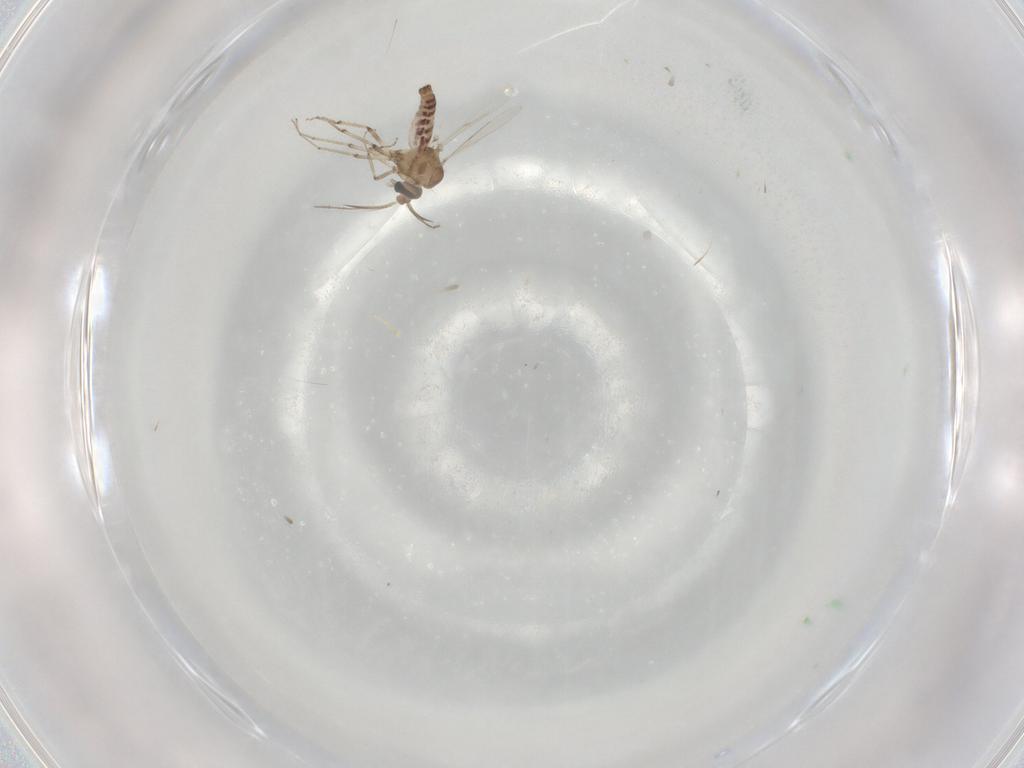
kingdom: Animalia
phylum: Arthropoda
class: Insecta
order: Diptera
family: Ceratopogonidae
